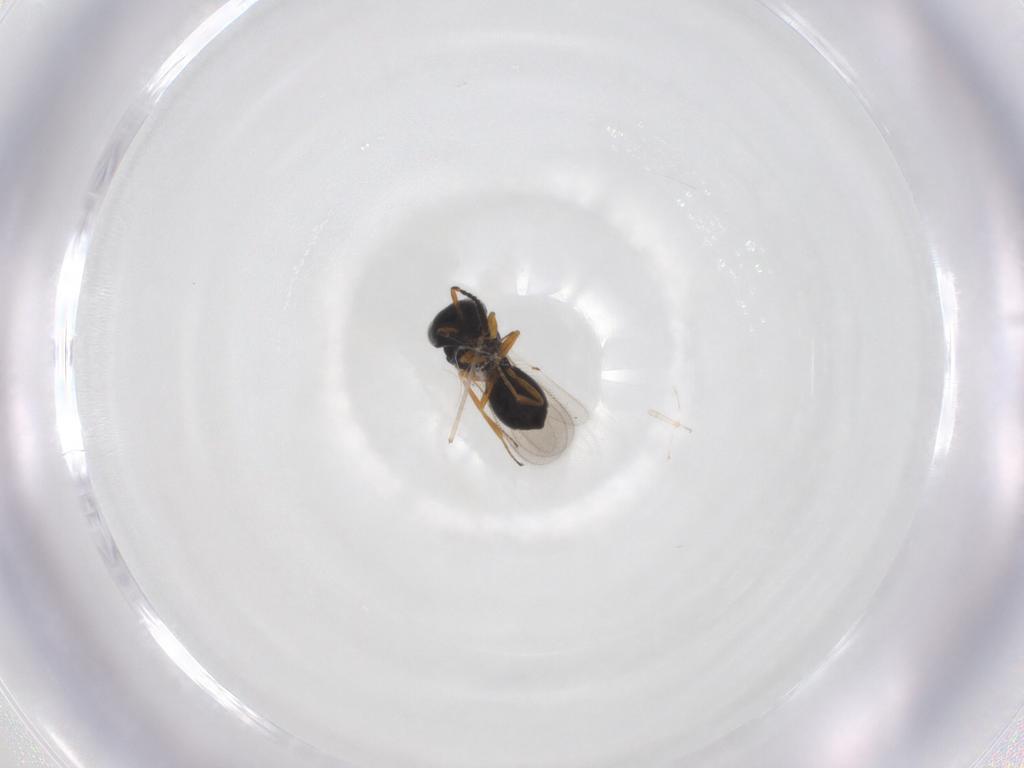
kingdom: Animalia
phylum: Arthropoda
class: Insecta
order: Hymenoptera
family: Scelionidae
